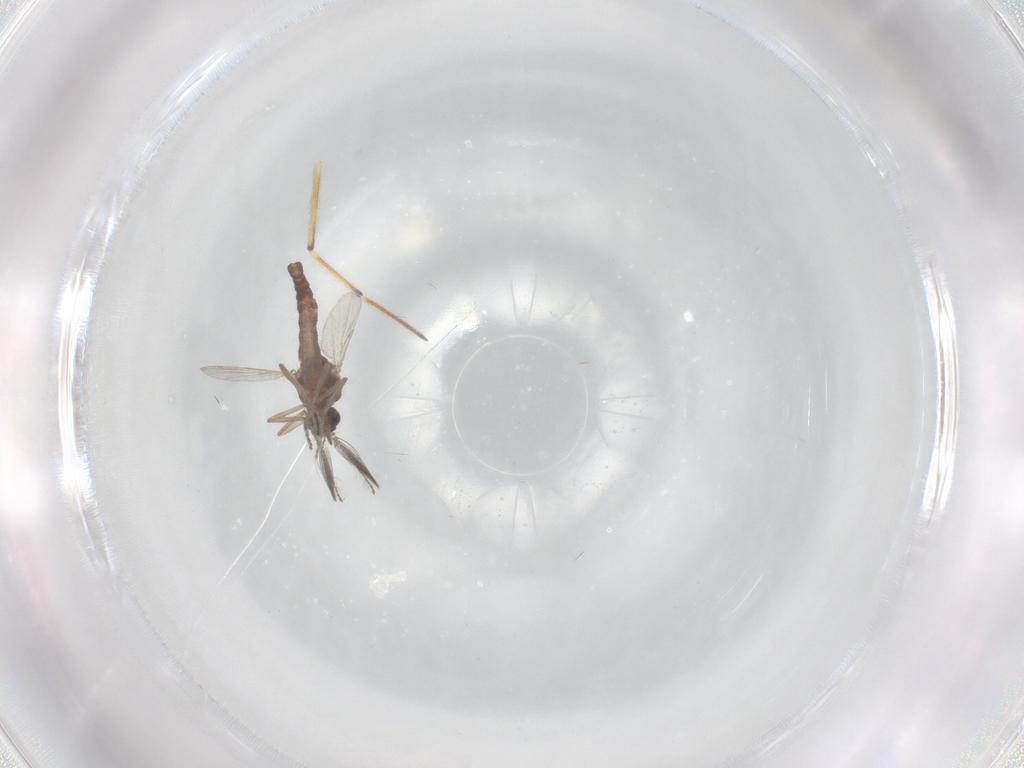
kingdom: Animalia
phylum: Arthropoda
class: Insecta
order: Diptera
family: Ceratopogonidae
